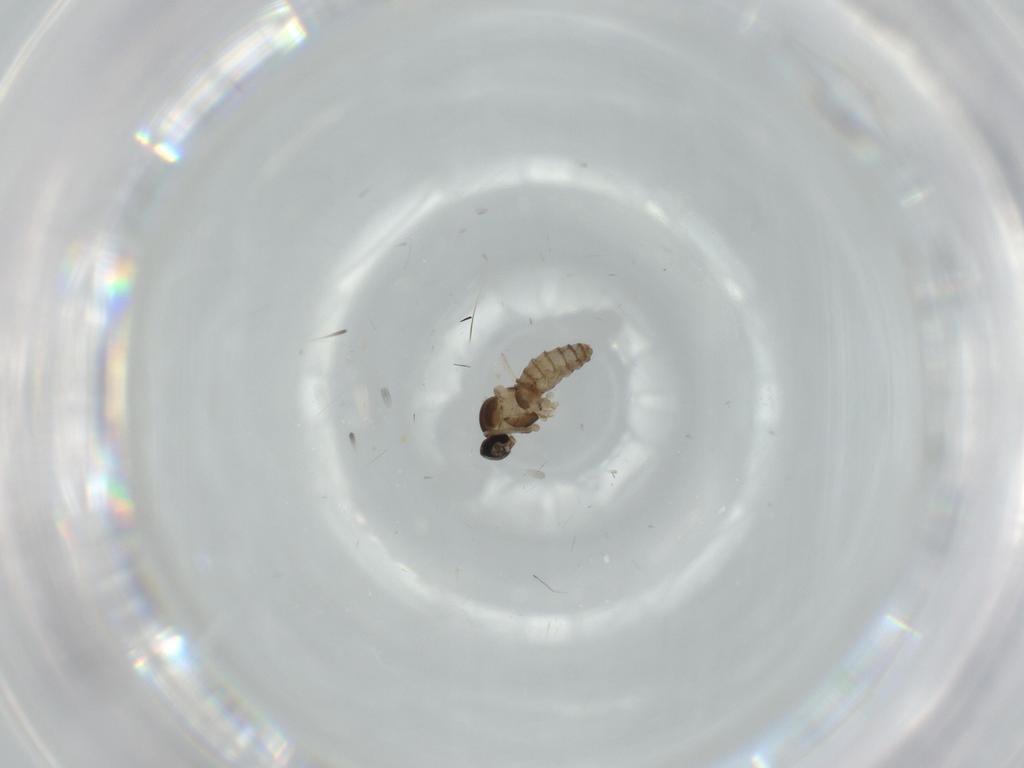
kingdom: Animalia
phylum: Arthropoda
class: Insecta
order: Diptera
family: Cecidomyiidae
